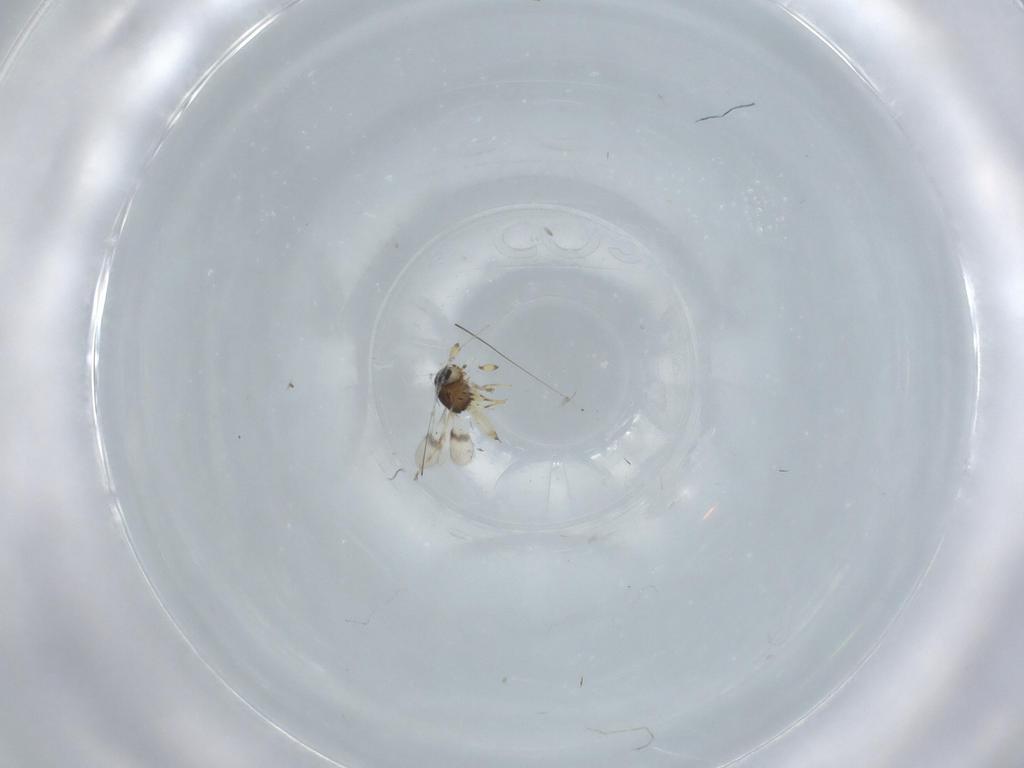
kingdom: Animalia
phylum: Arthropoda
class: Insecta
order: Hymenoptera
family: Scelionidae
